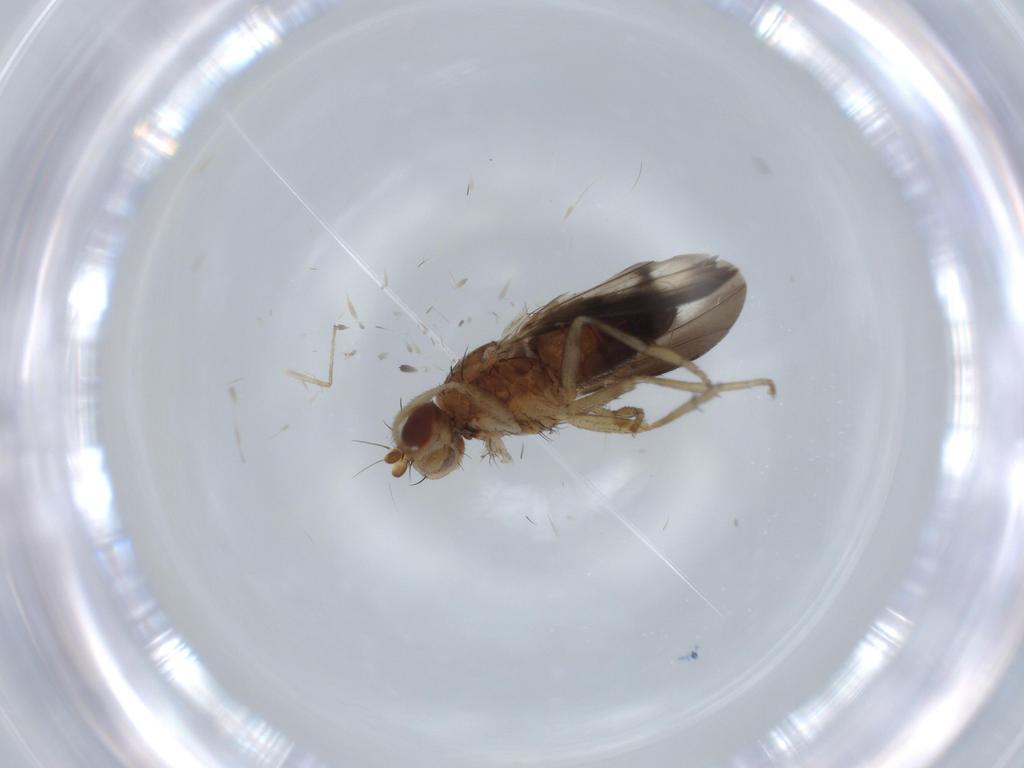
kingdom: Animalia
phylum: Arthropoda
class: Insecta
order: Diptera
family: Heleomyzidae
